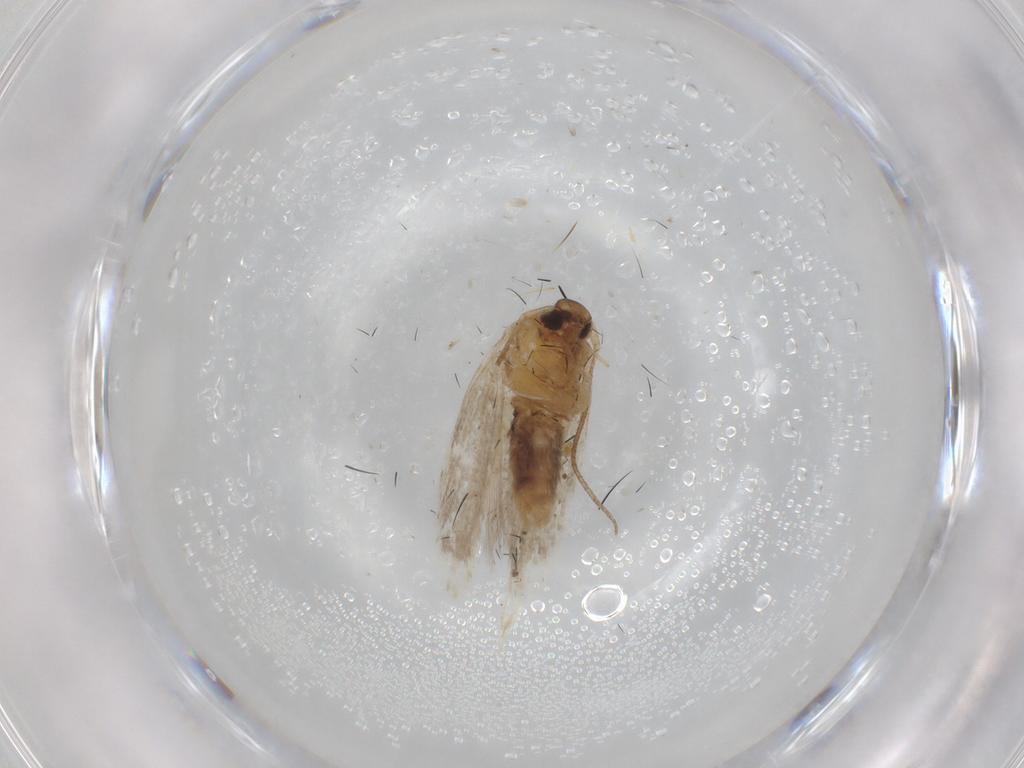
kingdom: Animalia
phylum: Arthropoda
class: Insecta
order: Lepidoptera
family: Cosmopterigidae
